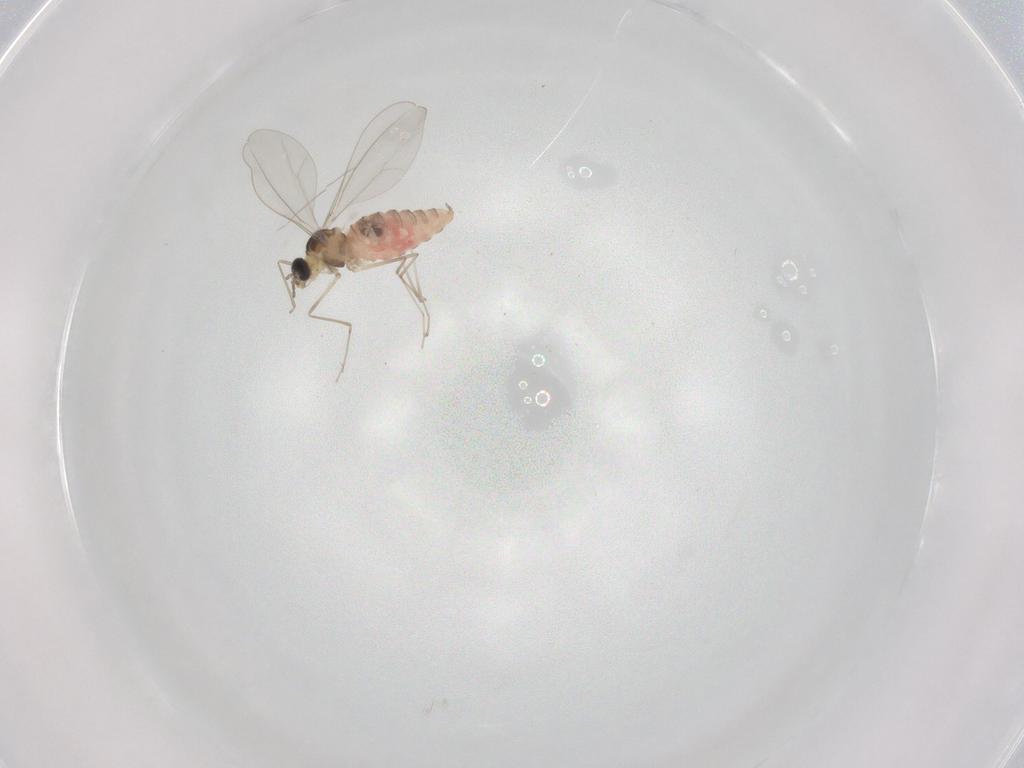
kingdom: Animalia
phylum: Arthropoda
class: Insecta
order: Diptera
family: Cecidomyiidae
